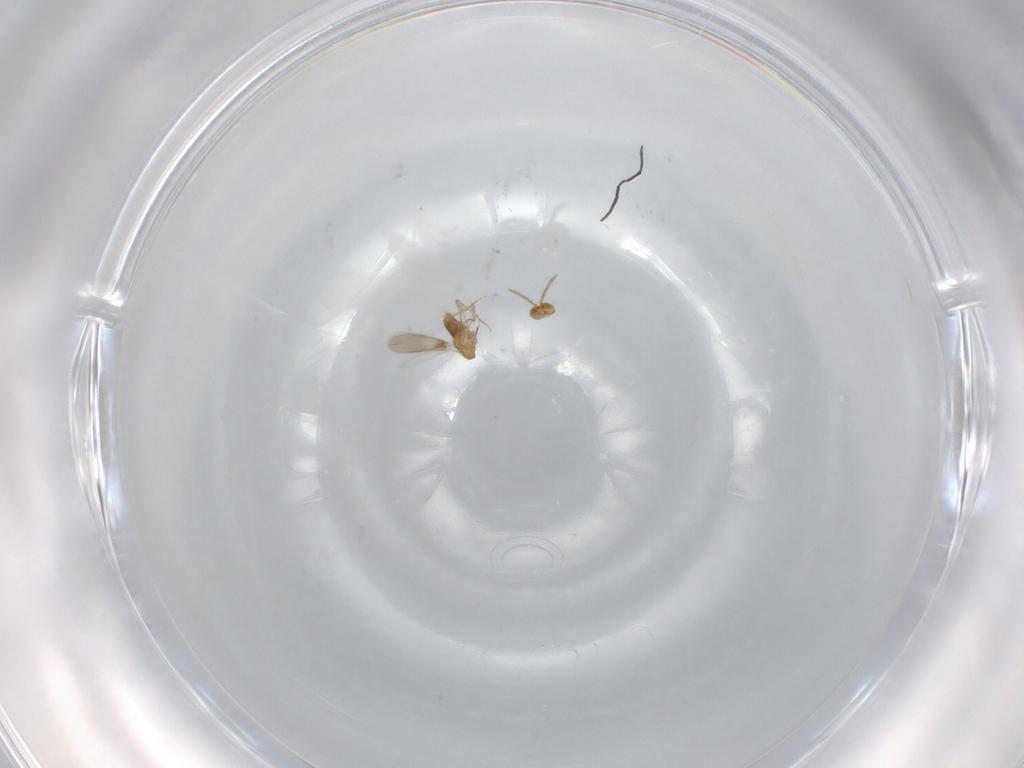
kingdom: Animalia
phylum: Arthropoda
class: Insecta
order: Hymenoptera
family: Aphelinidae
